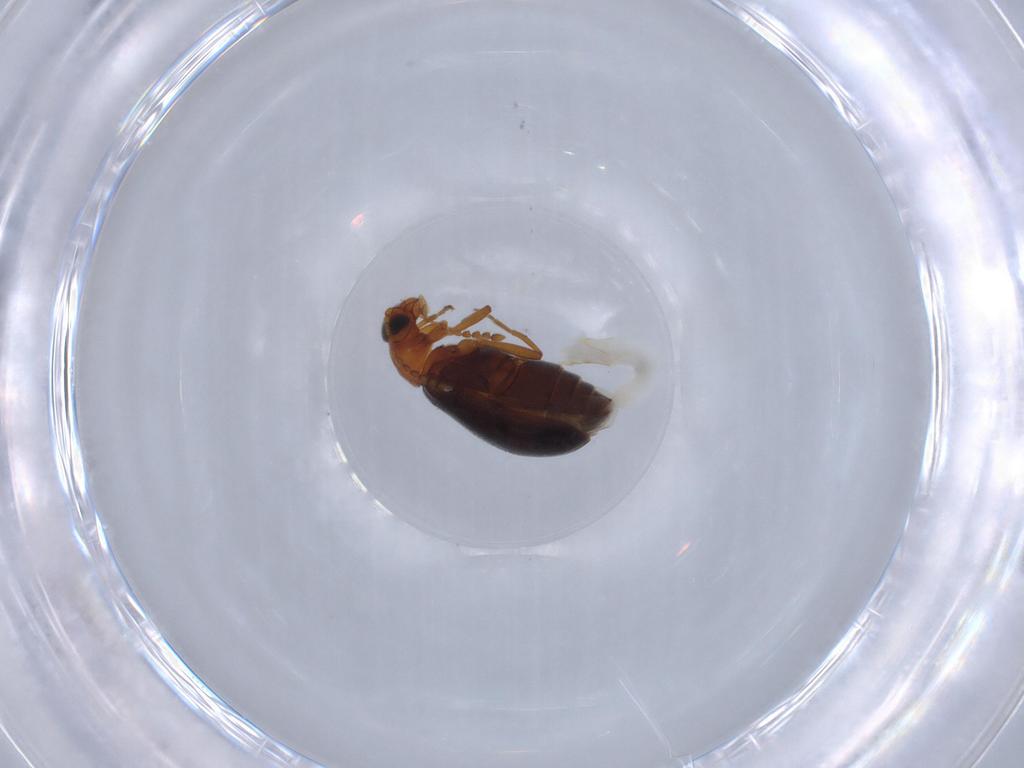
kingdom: Animalia
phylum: Arthropoda
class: Insecta
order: Coleoptera
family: Aderidae
